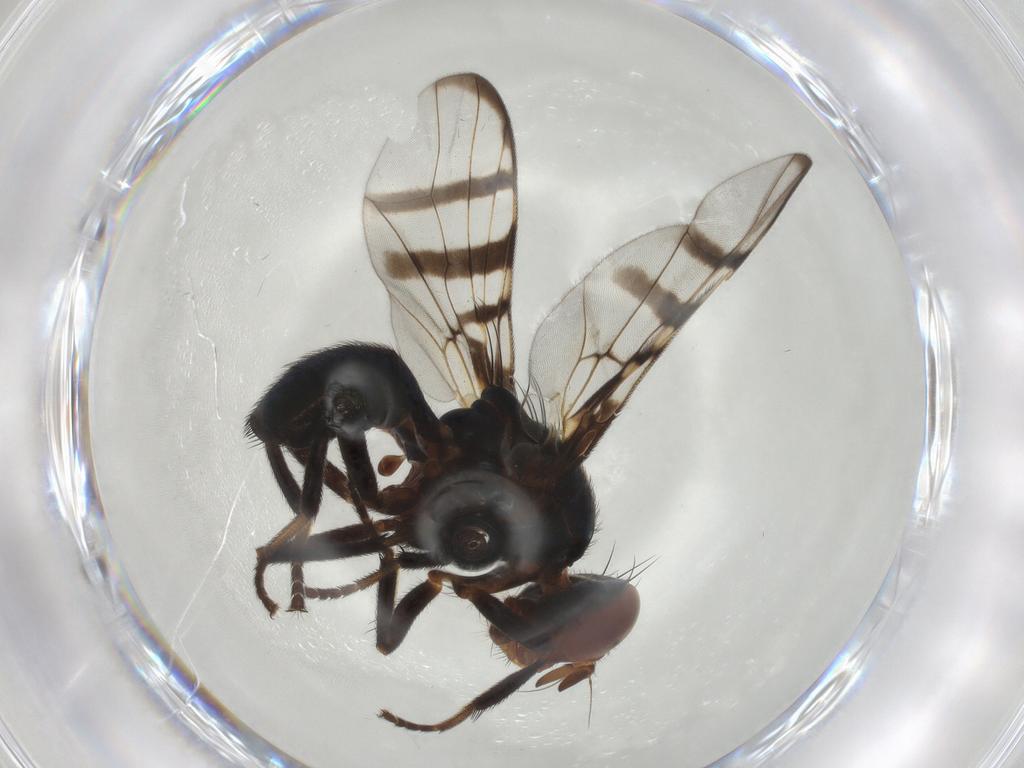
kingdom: Animalia
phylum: Arthropoda
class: Insecta
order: Diptera
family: Platystomatidae
